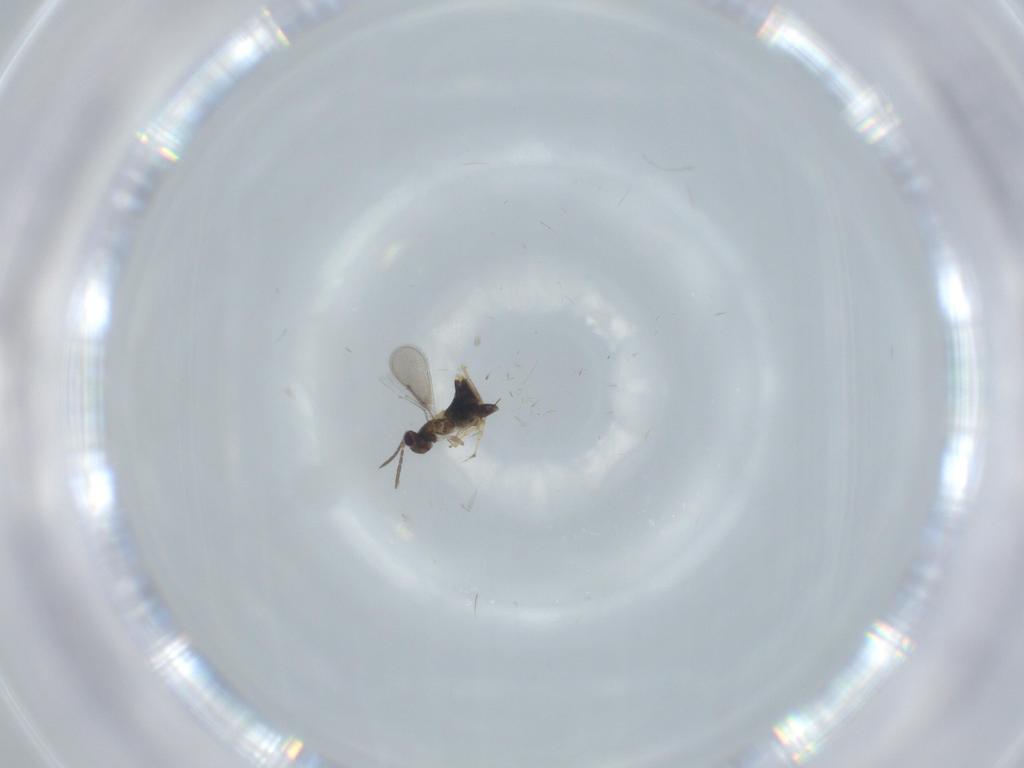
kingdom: Animalia
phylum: Arthropoda
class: Insecta
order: Hymenoptera
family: Aphelinidae
